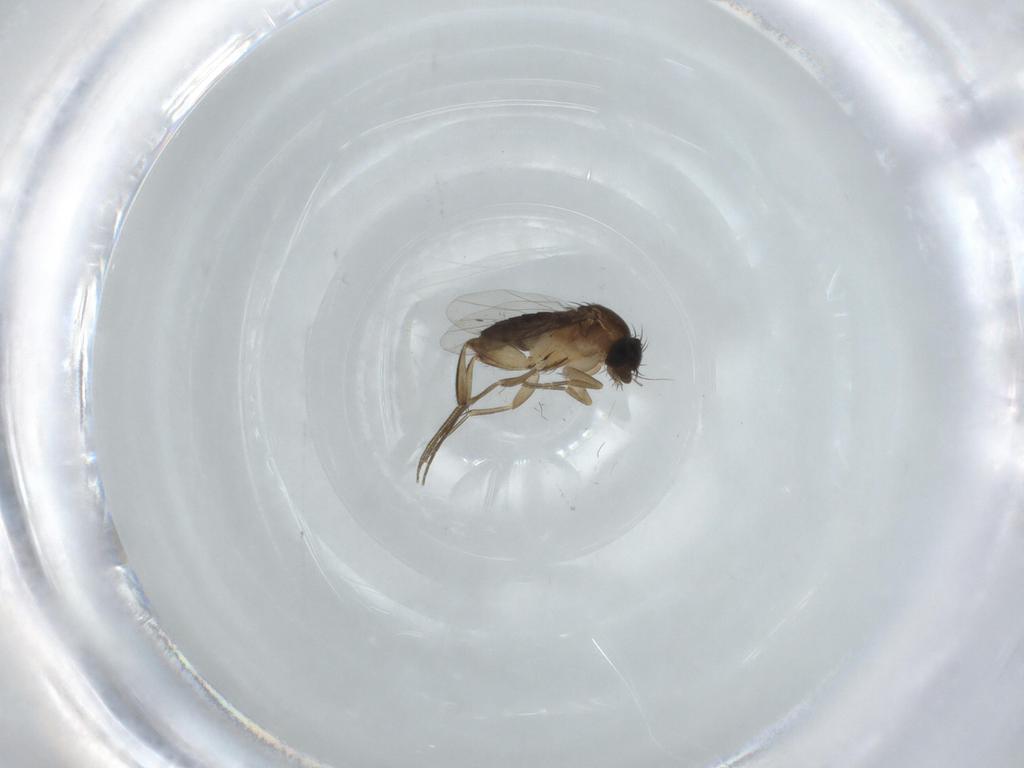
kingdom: Animalia
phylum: Arthropoda
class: Insecta
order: Diptera
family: Phoridae
